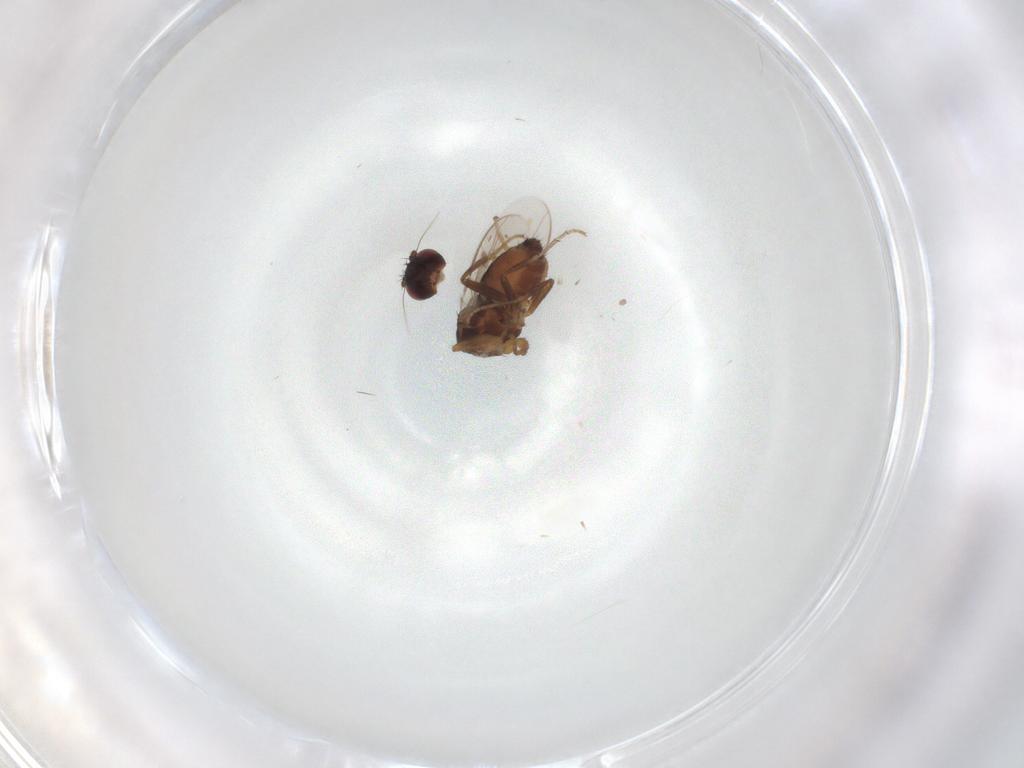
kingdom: Animalia
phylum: Arthropoda
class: Insecta
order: Diptera
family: Sphaeroceridae
